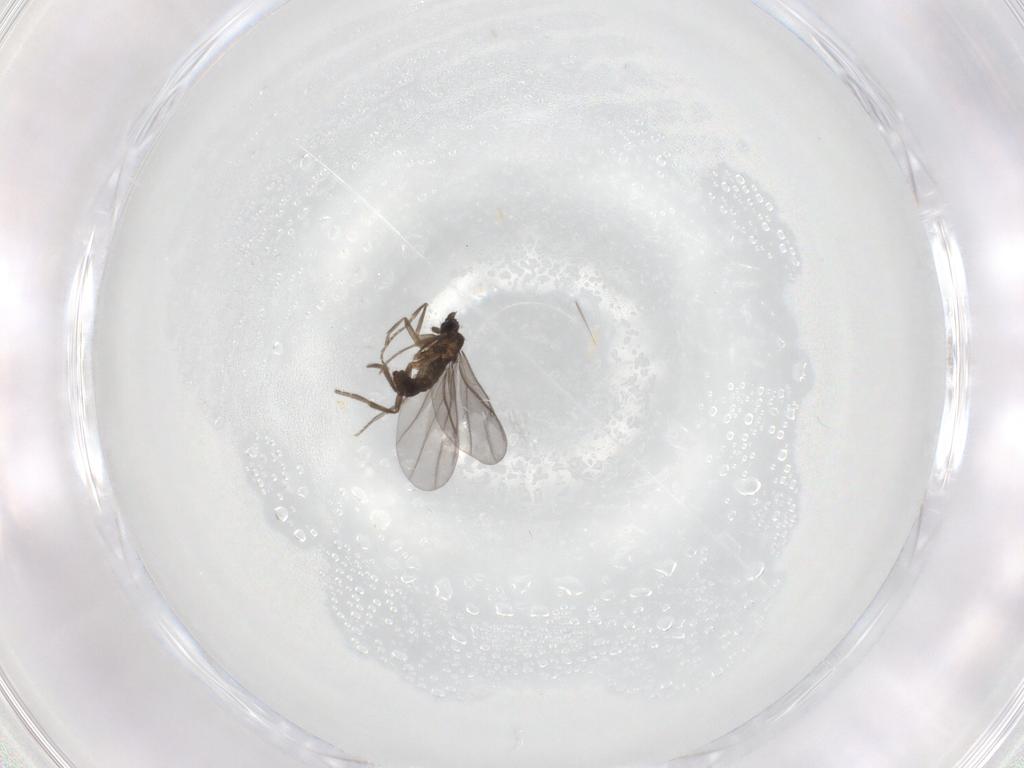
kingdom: Animalia
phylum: Arthropoda
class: Insecta
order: Diptera
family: Phoridae
